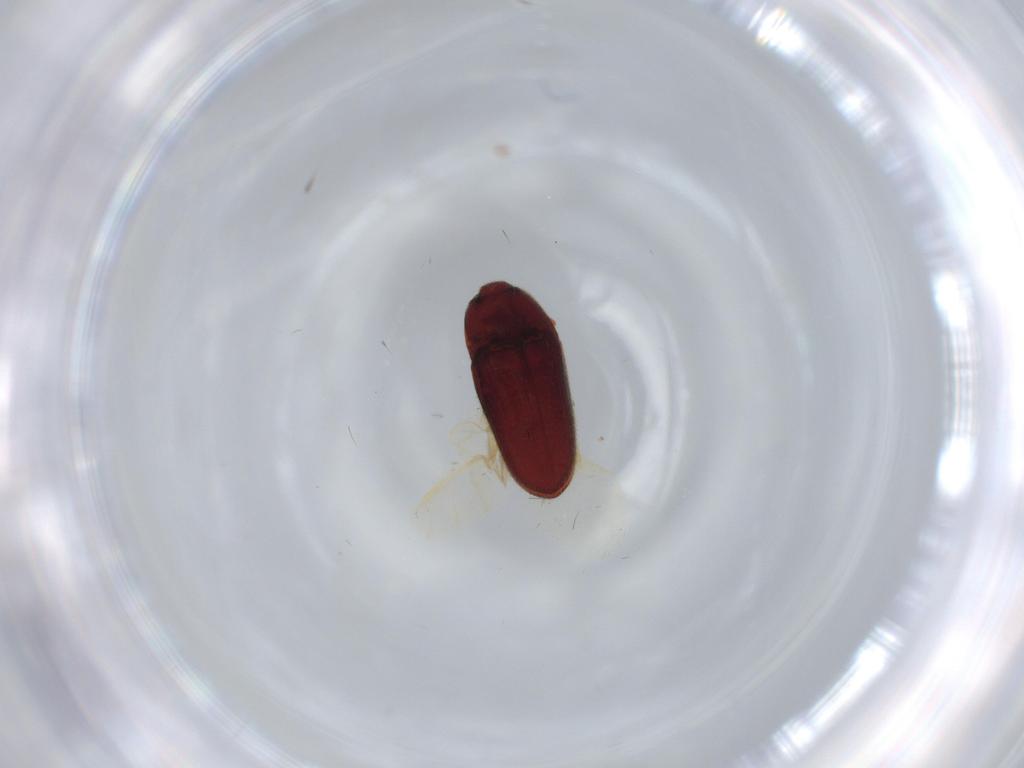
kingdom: Animalia
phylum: Arthropoda
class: Insecta
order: Coleoptera
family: Throscidae
